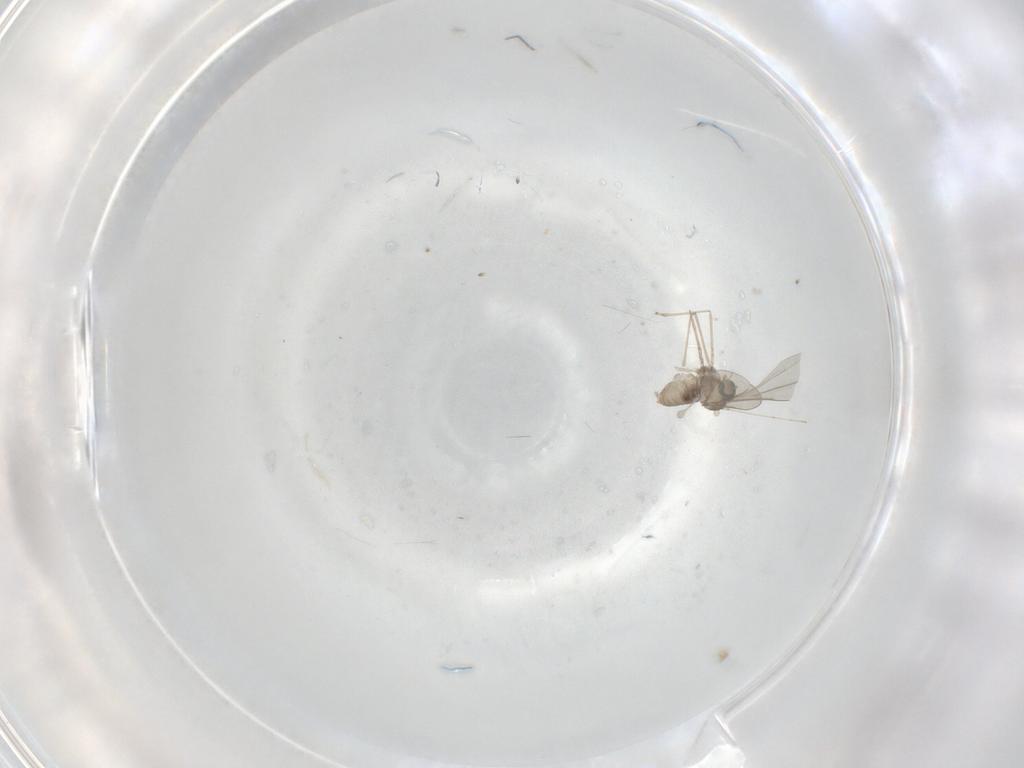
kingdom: Animalia
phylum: Arthropoda
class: Insecta
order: Diptera
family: Cecidomyiidae
